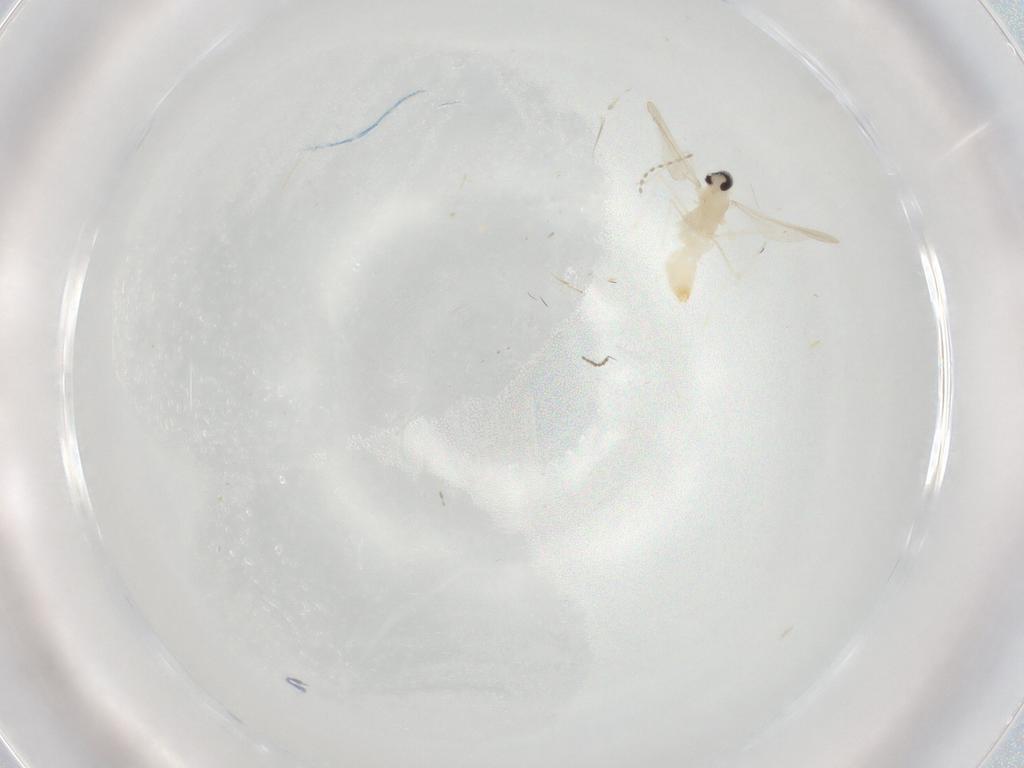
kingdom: Animalia
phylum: Arthropoda
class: Insecta
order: Diptera
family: Cecidomyiidae
